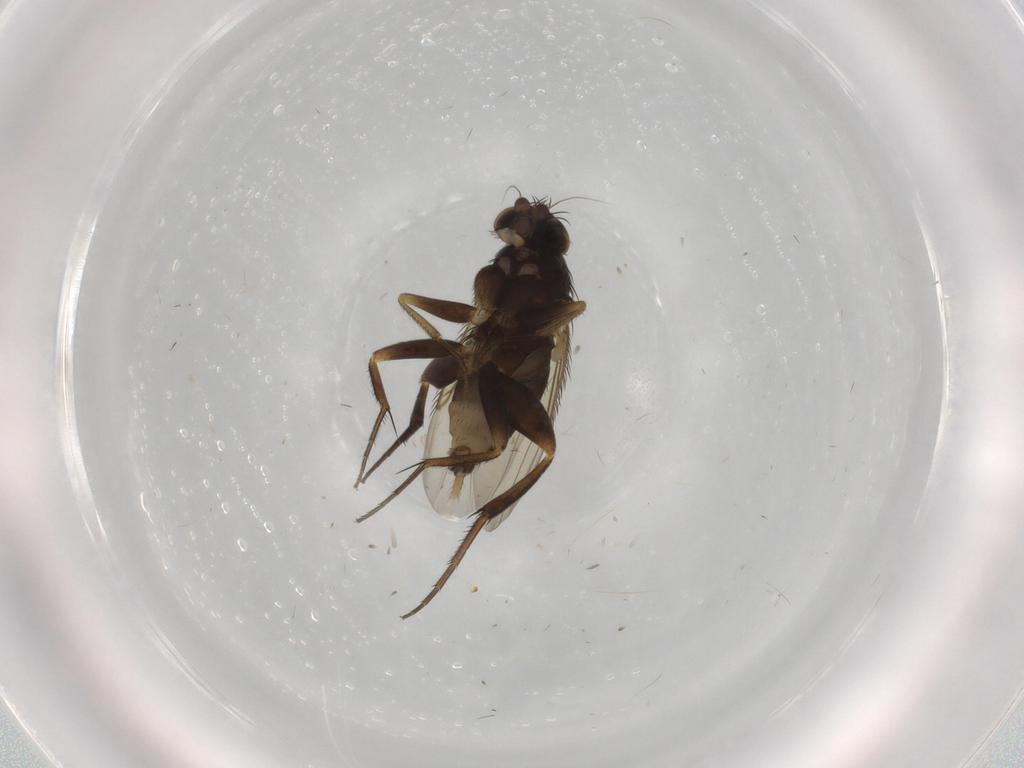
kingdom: Animalia
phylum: Arthropoda
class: Insecta
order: Diptera
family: Phoridae
